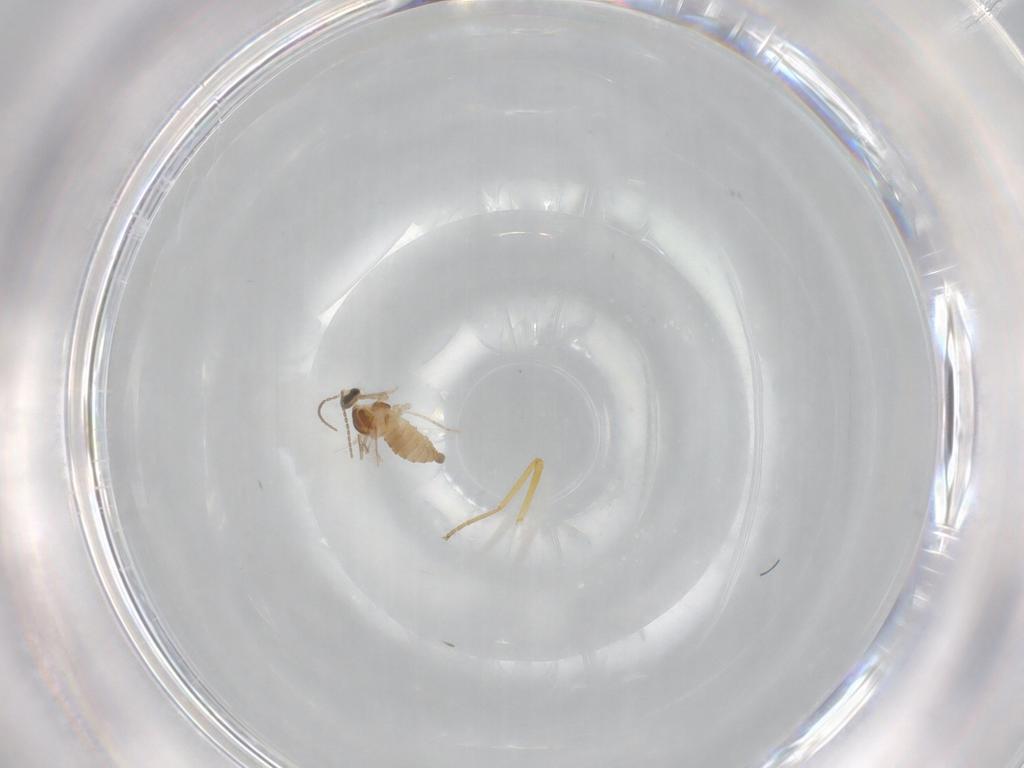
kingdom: Animalia
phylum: Arthropoda
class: Insecta
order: Diptera
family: Cecidomyiidae
